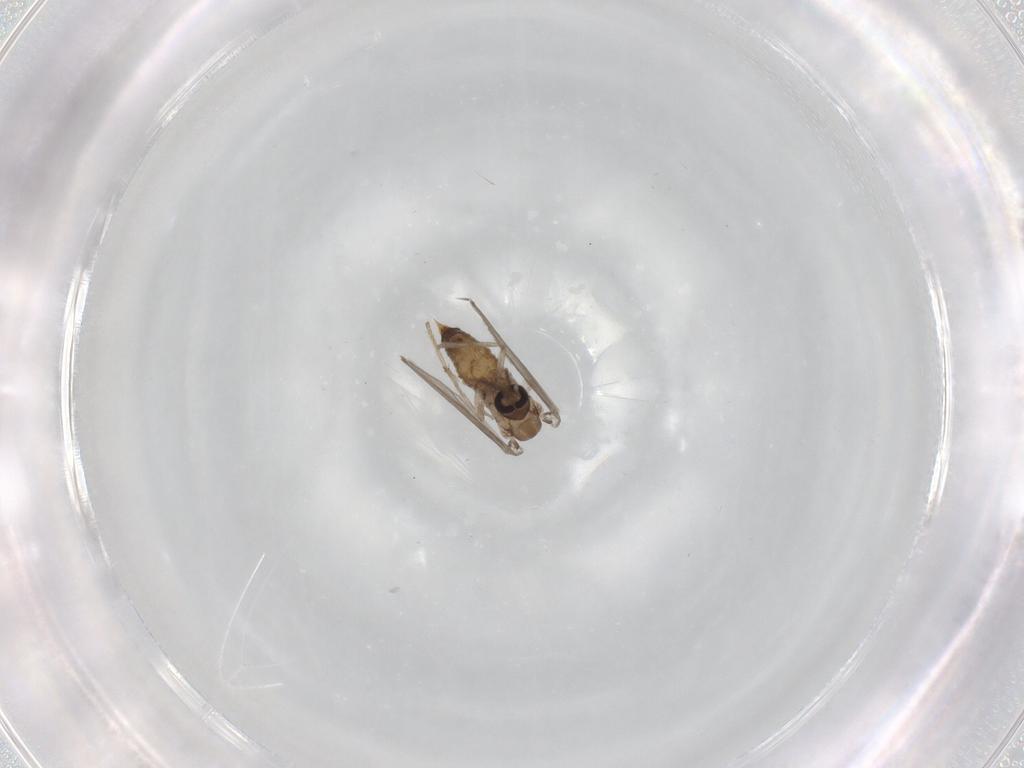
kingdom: Animalia
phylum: Arthropoda
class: Insecta
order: Diptera
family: Psychodidae
